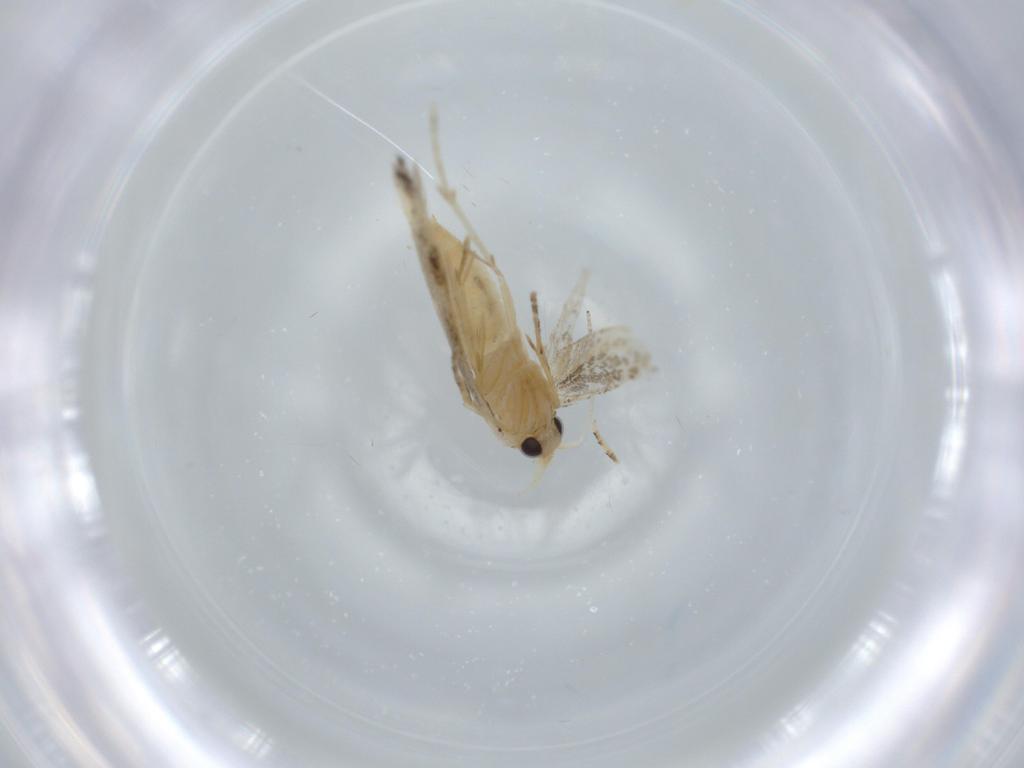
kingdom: Animalia
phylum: Arthropoda
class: Insecta
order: Lepidoptera
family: Bucculatricidae
